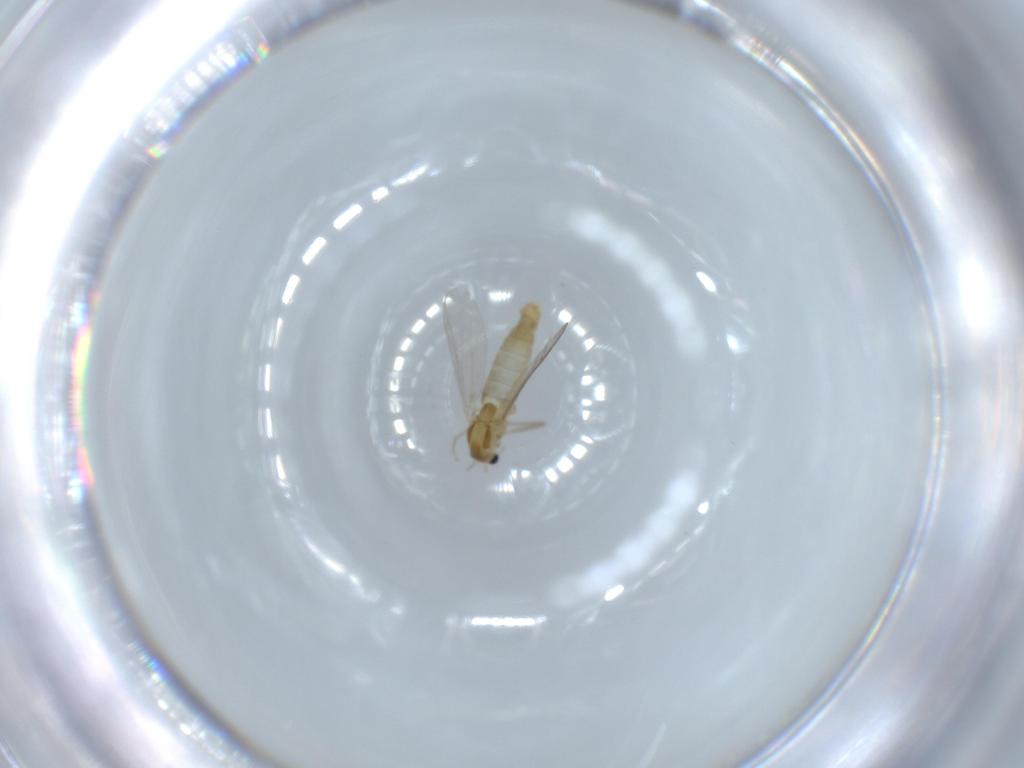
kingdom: Animalia
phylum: Arthropoda
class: Insecta
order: Diptera
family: Chironomidae
